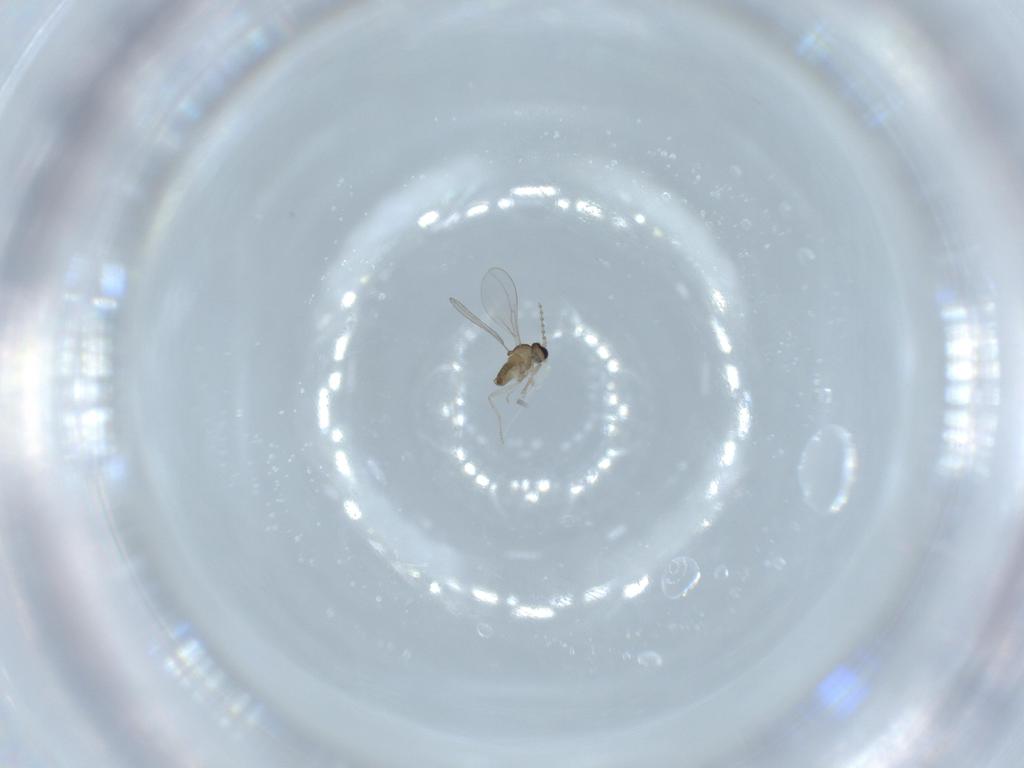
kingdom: Animalia
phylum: Arthropoda
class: Insecta
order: Diptera
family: Cecidomyiidae
